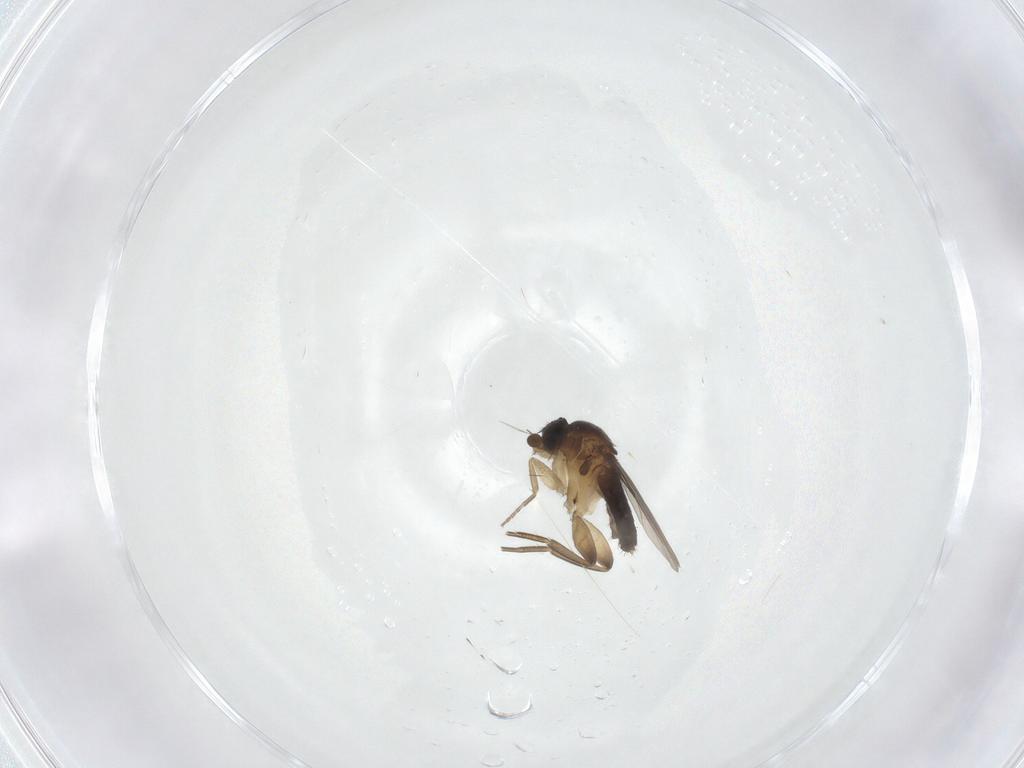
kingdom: Animalia
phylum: Arthropoda
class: Insecta
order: Diptera
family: Phoridae
